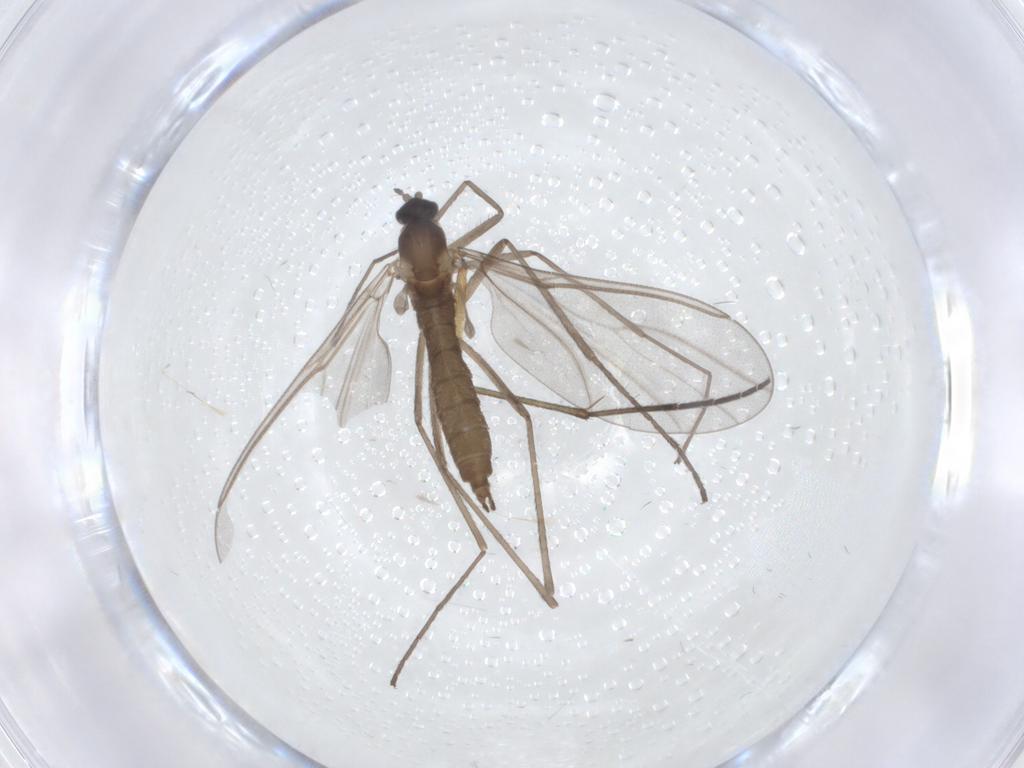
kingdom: Animalia
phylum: Arthropoda
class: Insecta
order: Diptera
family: Cecidomyiidae
